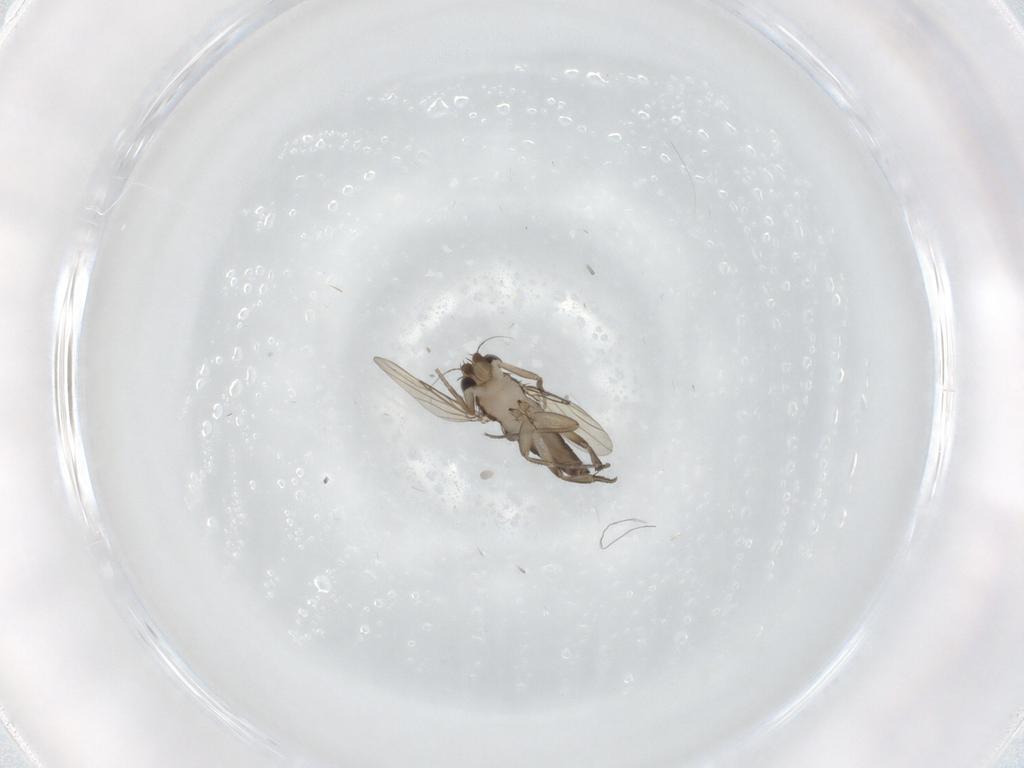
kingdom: Animalia
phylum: Arthropoda
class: Insecta
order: Diptera
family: Phoridae
